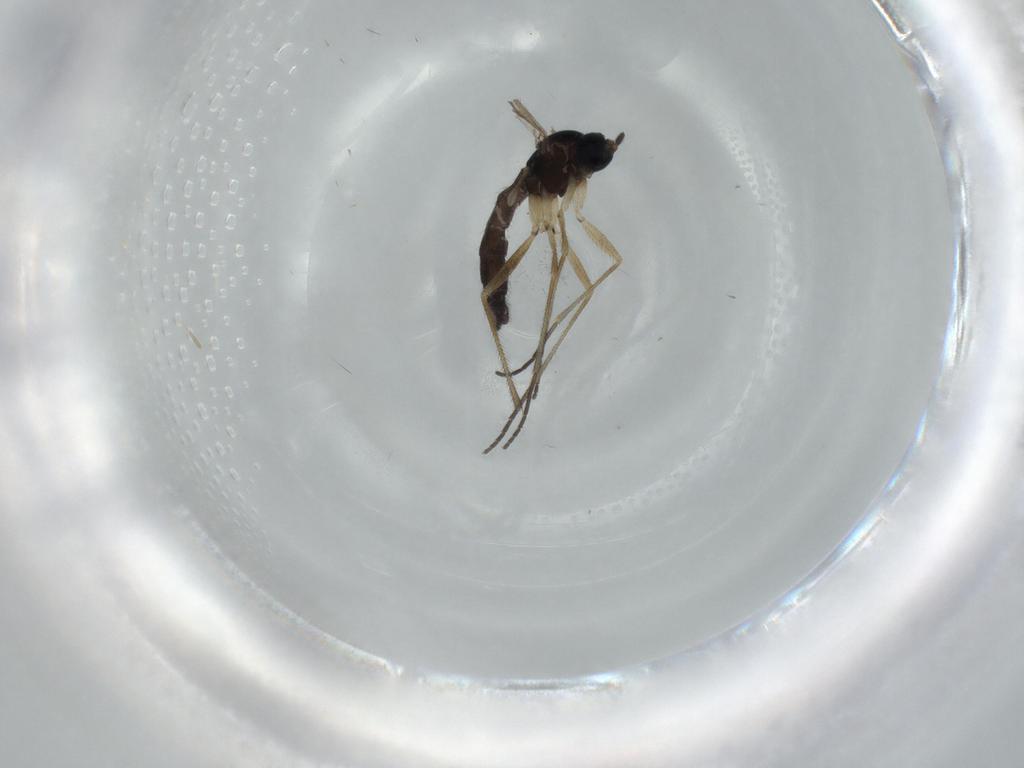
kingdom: Animalia
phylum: Arthropoda
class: Insecta
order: Diptera
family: Sciaridae
